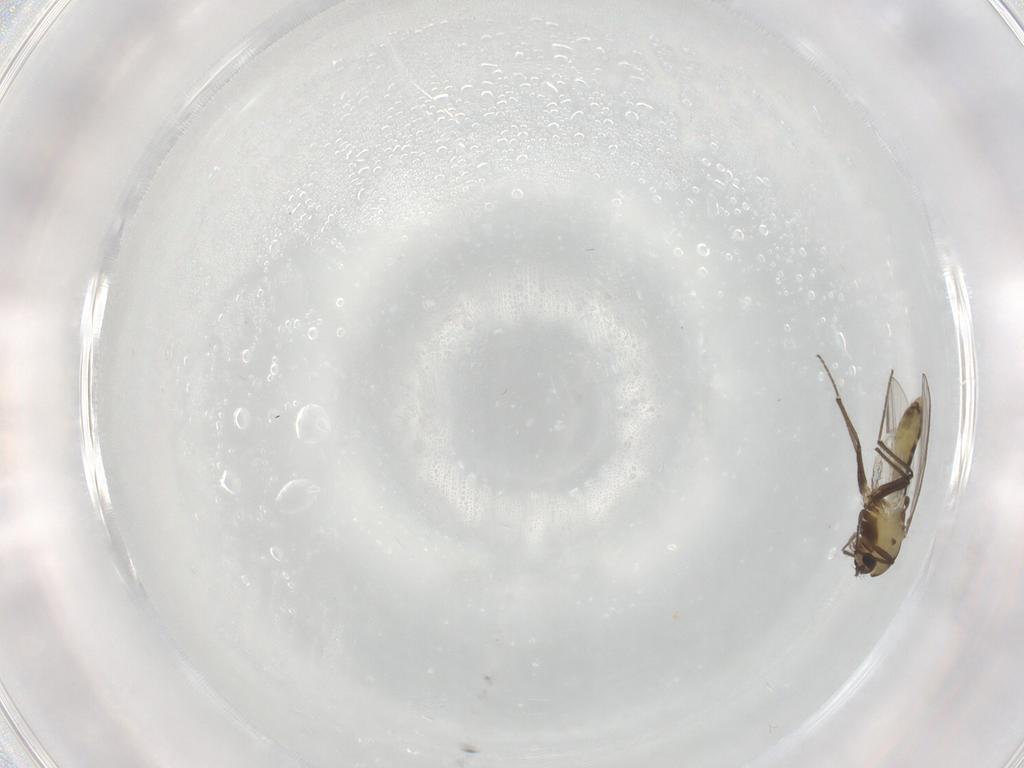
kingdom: Animalia
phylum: Arthropoda
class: Insecta
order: Diptera
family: Chironomidae
